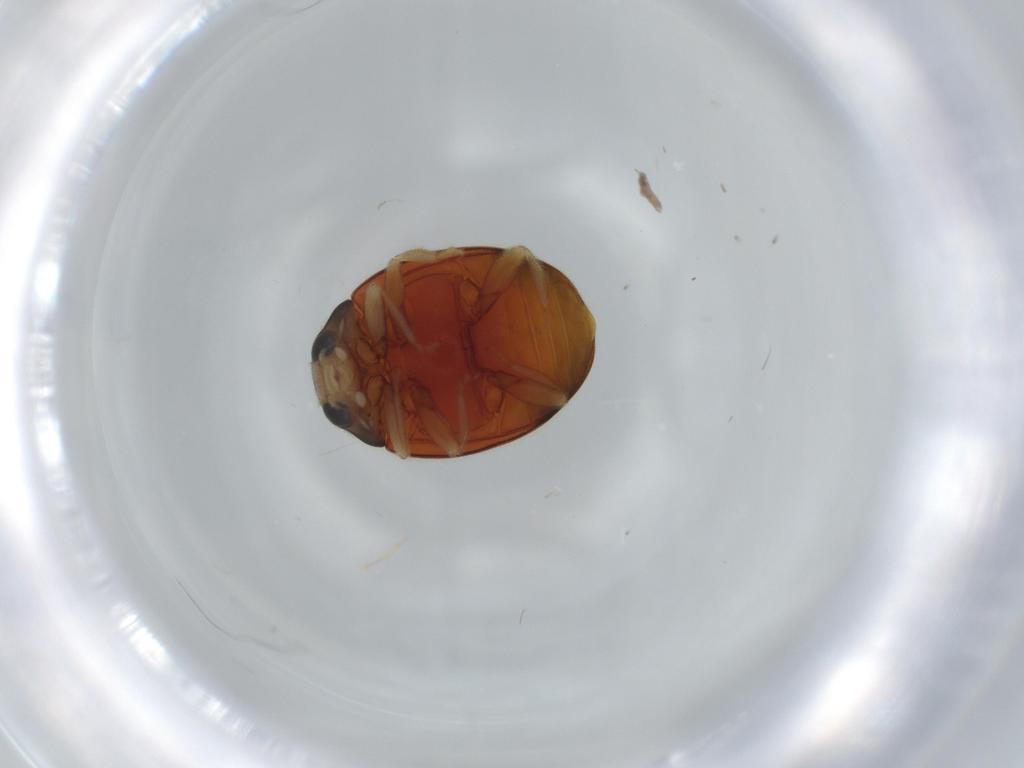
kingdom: Animalia
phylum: Arthropoda
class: Insecta
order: Coleoptera
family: Coccinellidae
